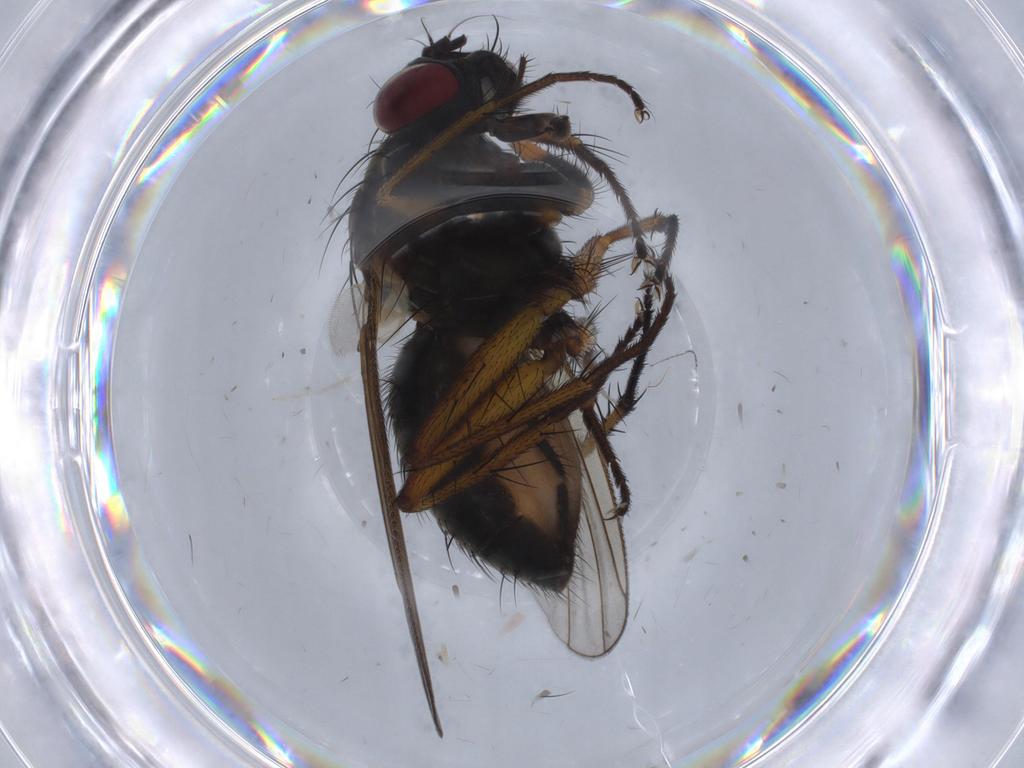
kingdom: Animalia
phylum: Arthropoda
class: Insecta
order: Diptera
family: Muscidae
